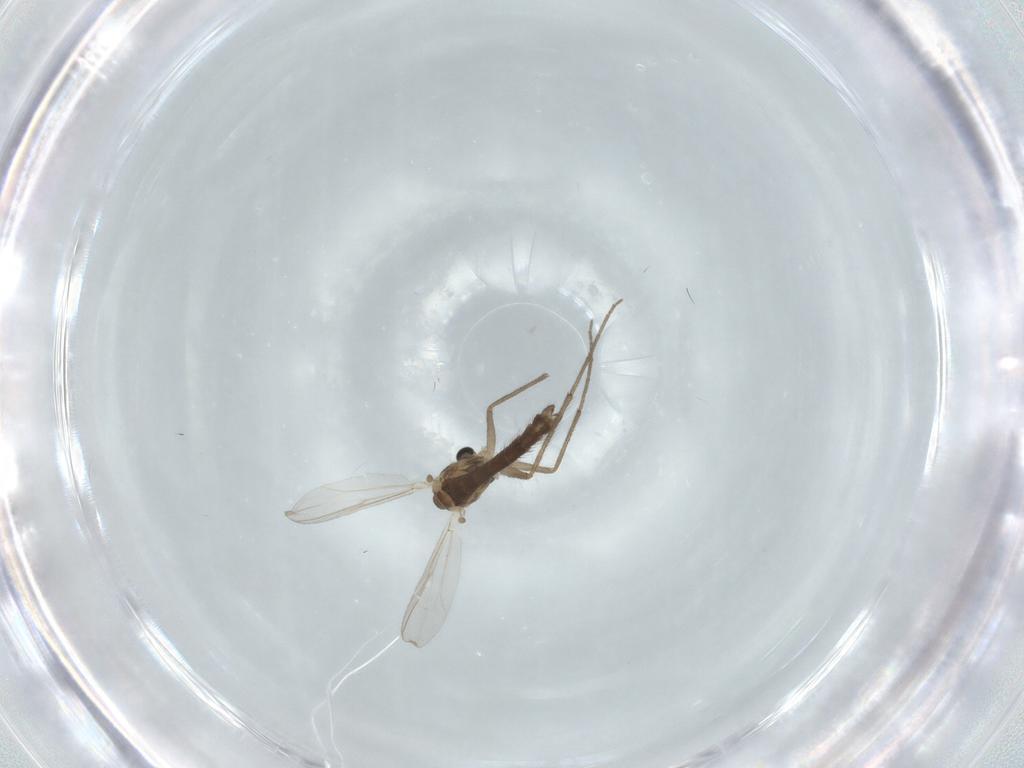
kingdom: Animalia
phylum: Arthropoda
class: Insecta
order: Diptera
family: Chironomidae
